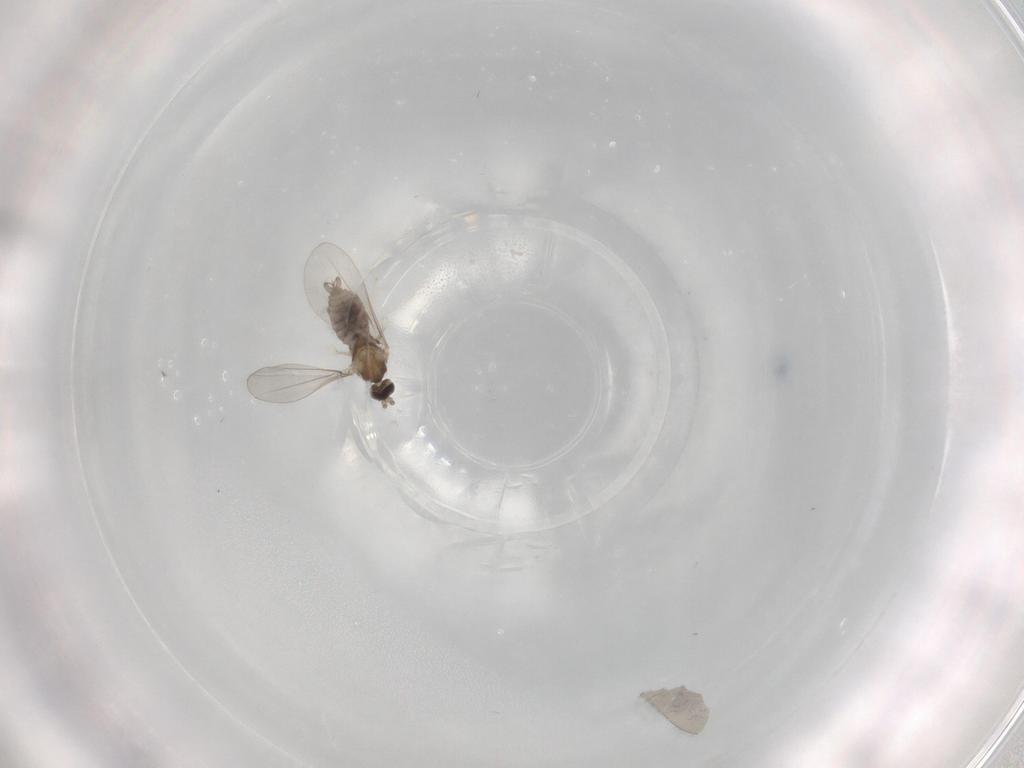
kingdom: Animalia
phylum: Arthropoda
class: Insecta
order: Diptera
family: Cecidomyiidae
